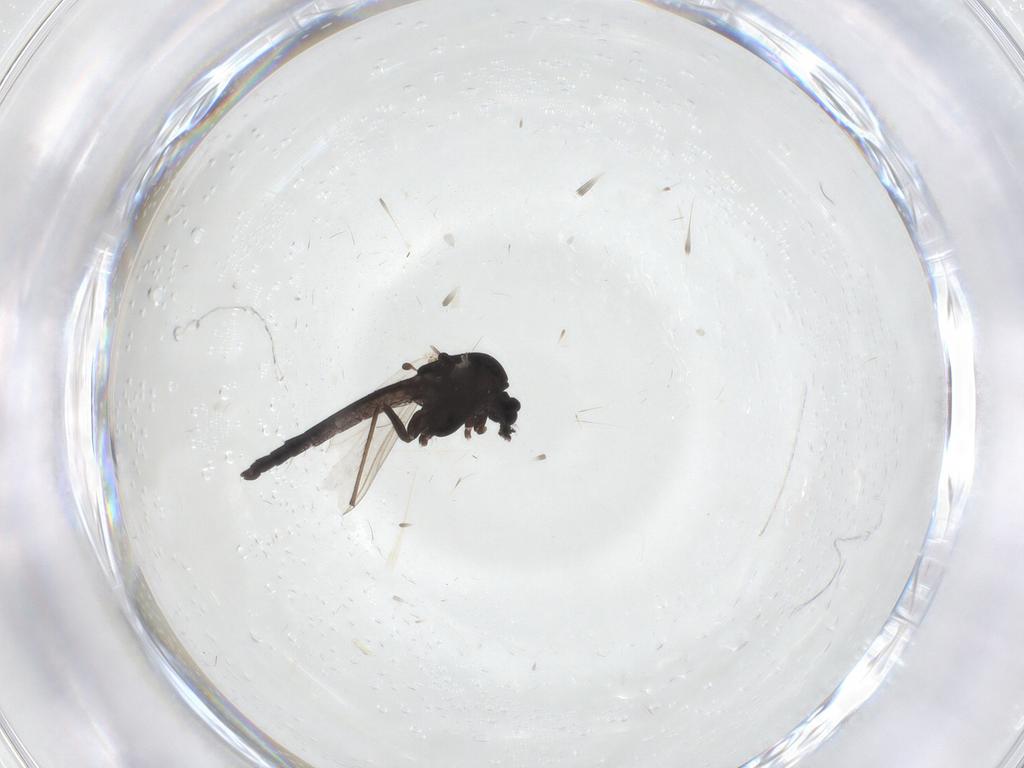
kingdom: Animalia
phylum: Arthropoda
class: Insecta
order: Diptera
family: Chironomidae
